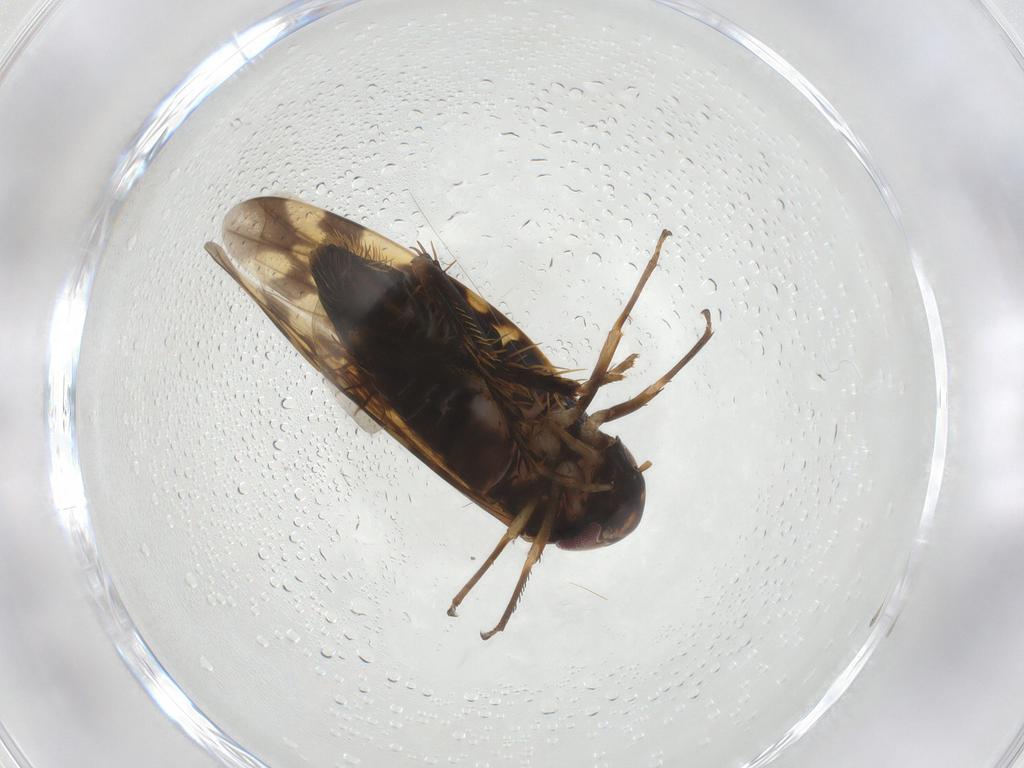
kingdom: Animalia
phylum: Arthropoda
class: Insecta
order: Hemiptera
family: Cicadellidae
